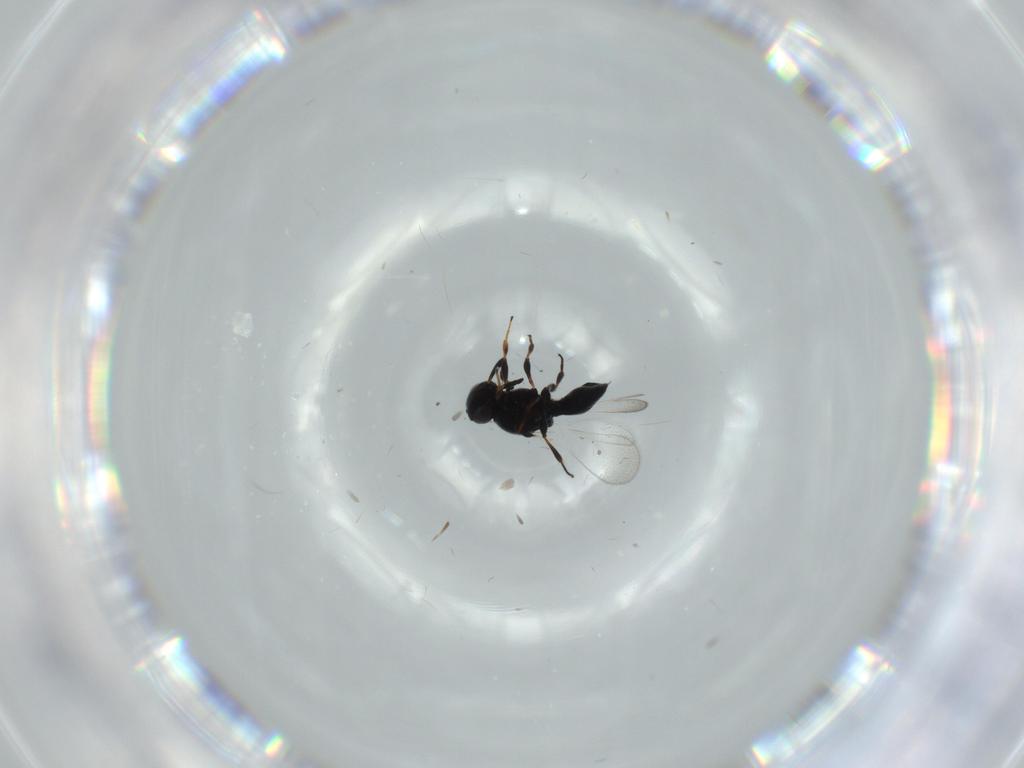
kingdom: Animalia
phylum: Arthropoda
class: Insecta
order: Hymenoptera
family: Platygastridae
